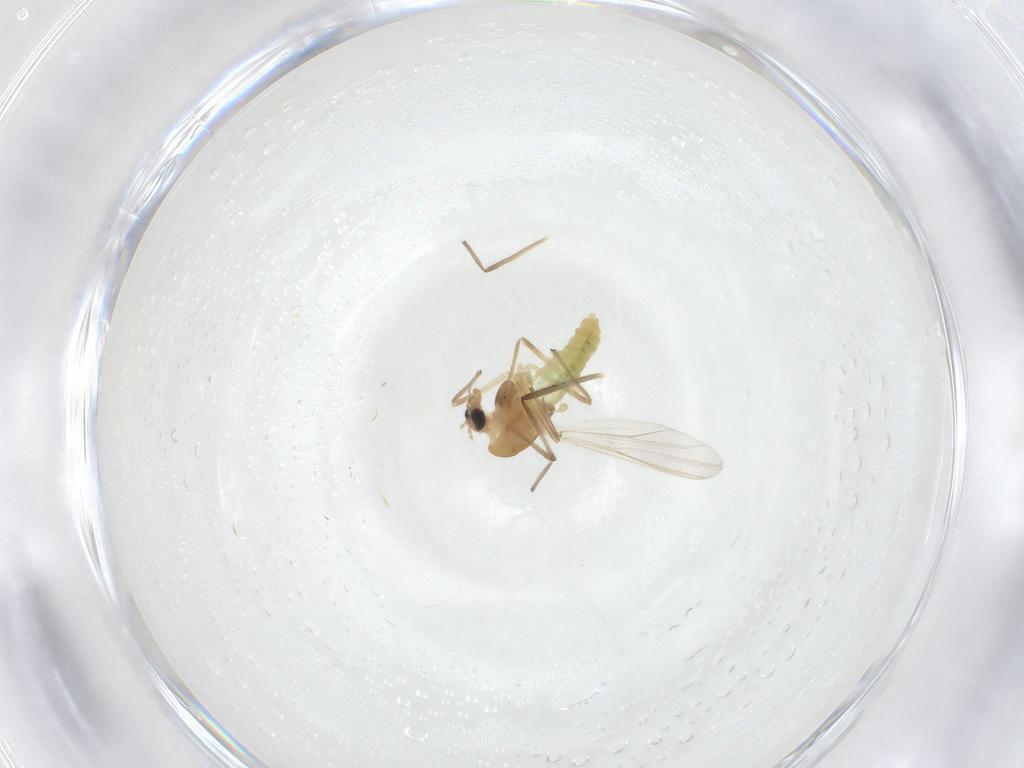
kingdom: Animalia
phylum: Arthropoda
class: Insecta
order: Diptera
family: Chironomidae
